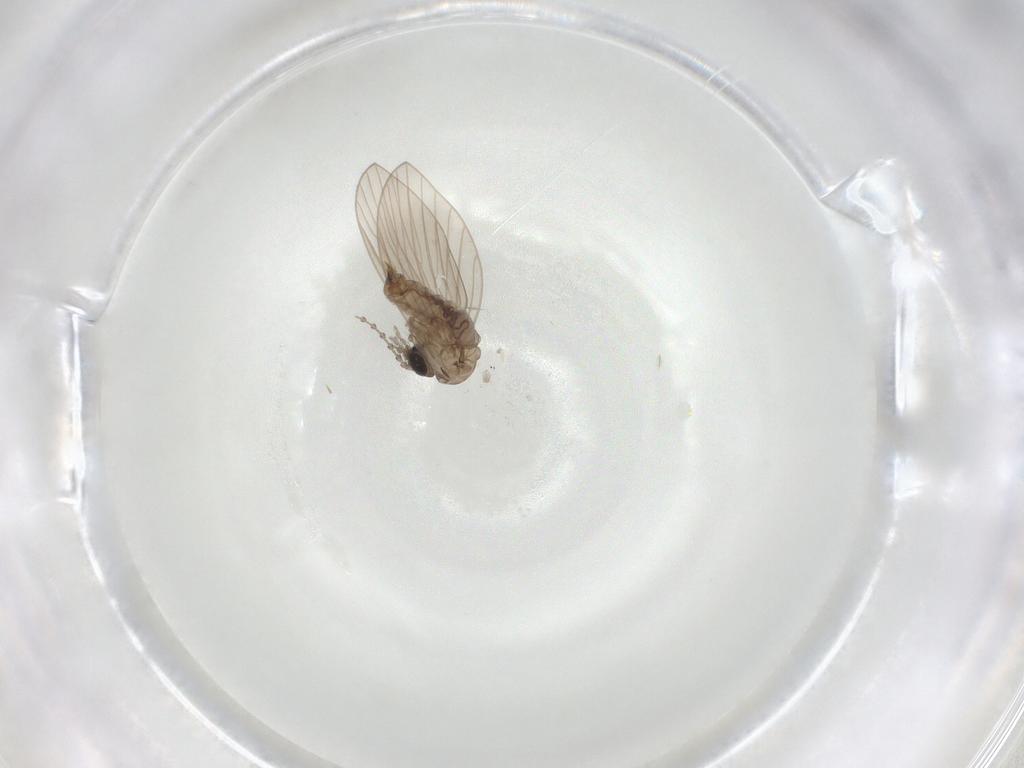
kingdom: Animalia
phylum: Arthropoda
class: Insecta
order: Diptera
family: Psychodidae
